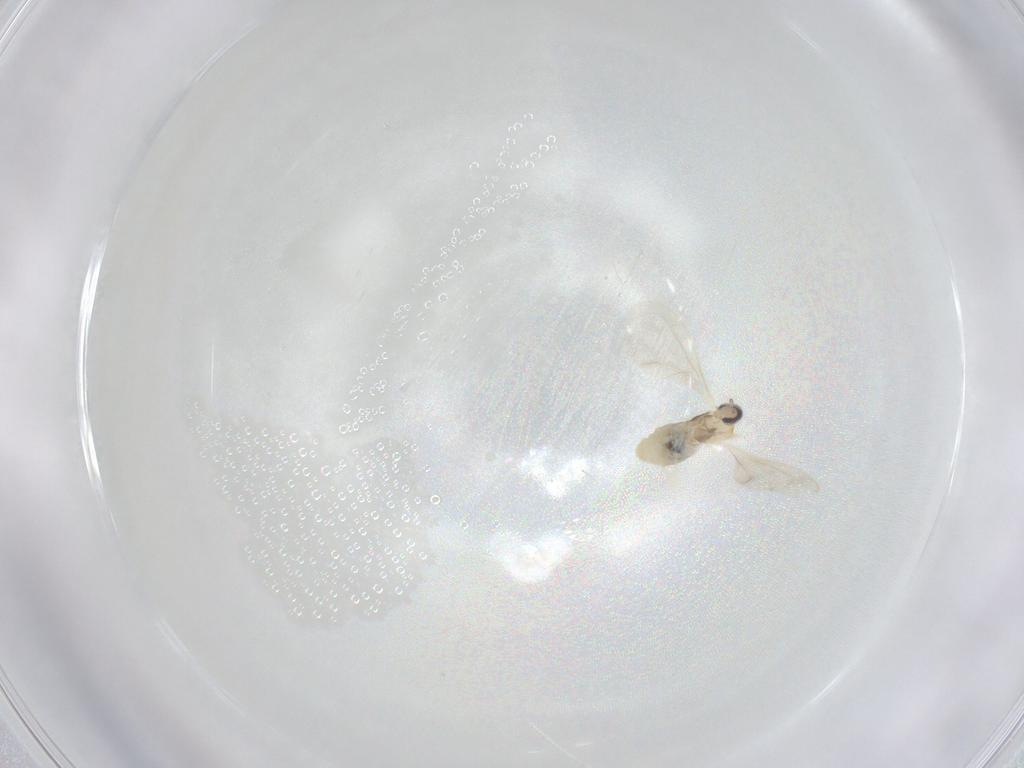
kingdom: Animalia
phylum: Arthropoda
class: Insecta
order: Diptera
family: Cecidomyiidae
